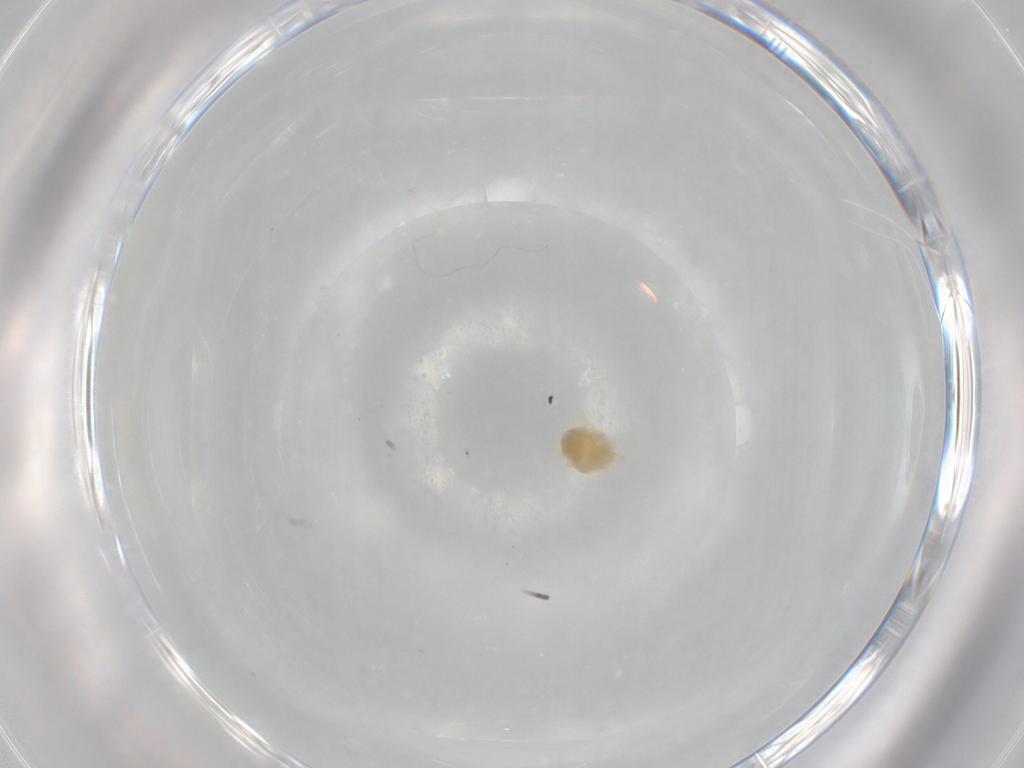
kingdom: Animalia
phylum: Arthropoda
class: Arachnida
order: Trombidiformes
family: Tetranychidae
